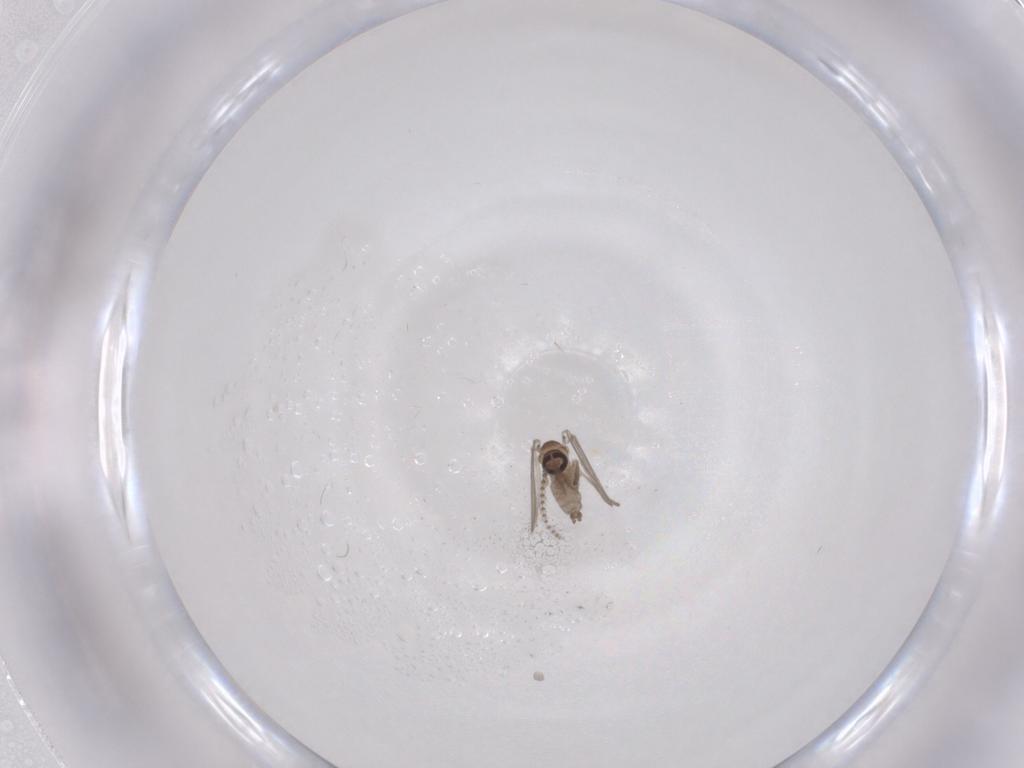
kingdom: Animalia
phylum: Arthropoda
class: Insecta
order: Diptera
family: Psychodidae
